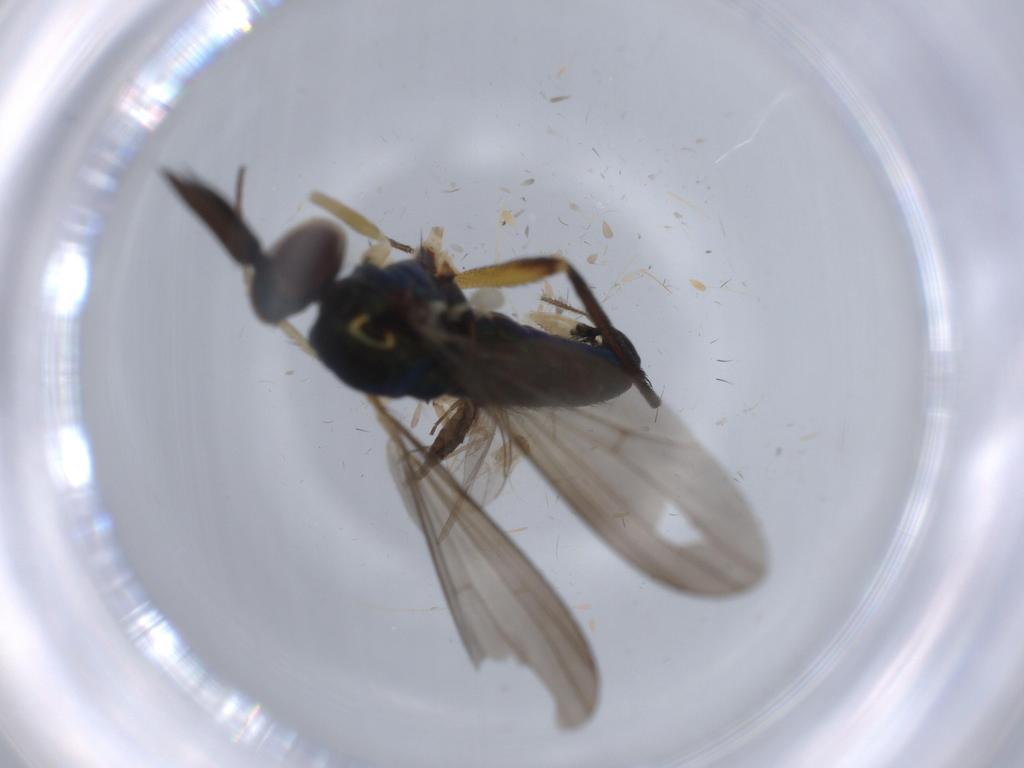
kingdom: Animalia
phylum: Arthropoda
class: Insecta
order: Diptera
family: Dolichopodidae
